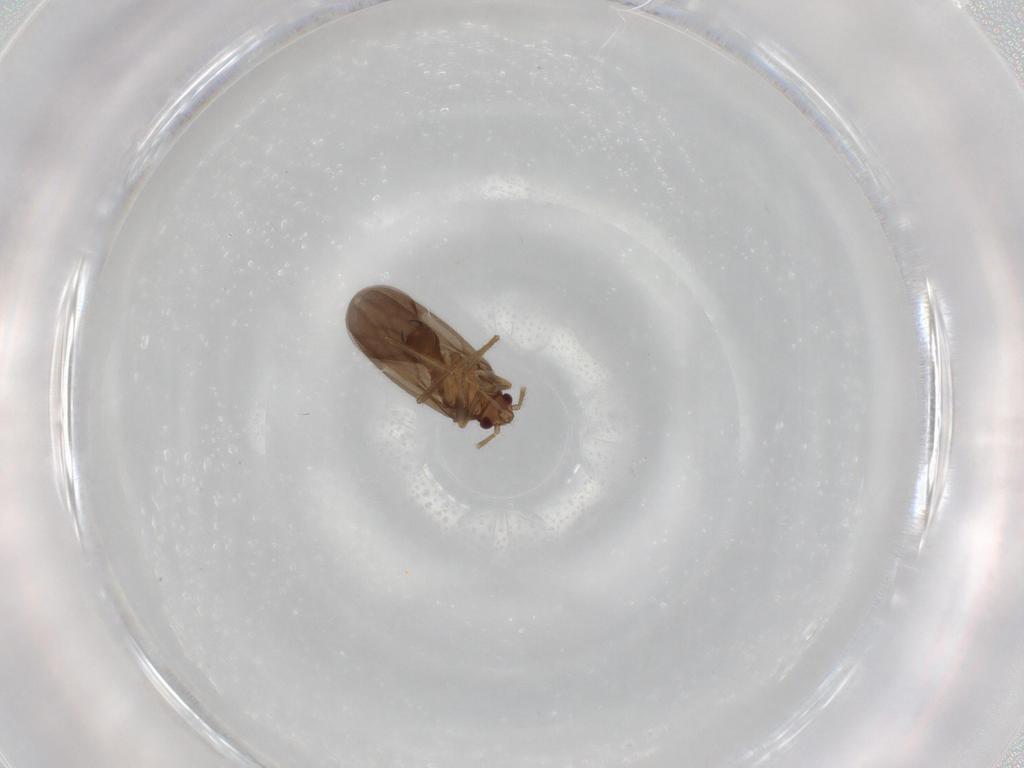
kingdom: Animalia
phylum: Arthropoda
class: Insecta
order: Hemiptera
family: Ceratocombidae
